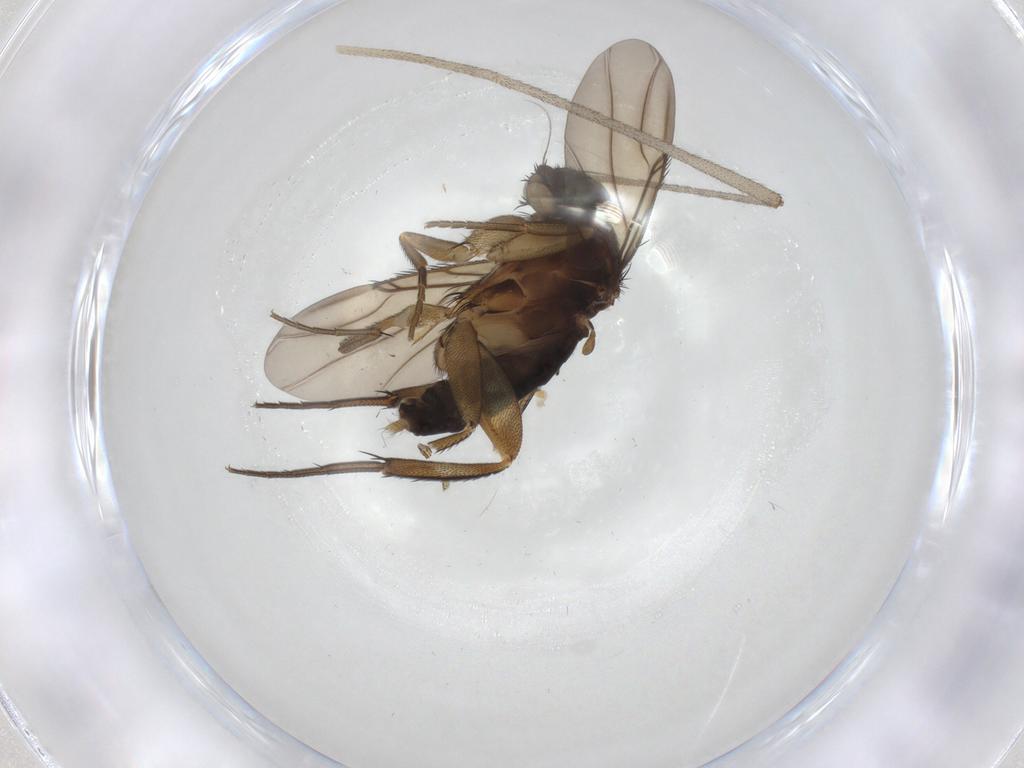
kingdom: Animalia
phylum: Arthropoda
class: Insecta
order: Diptera
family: Phoridae
